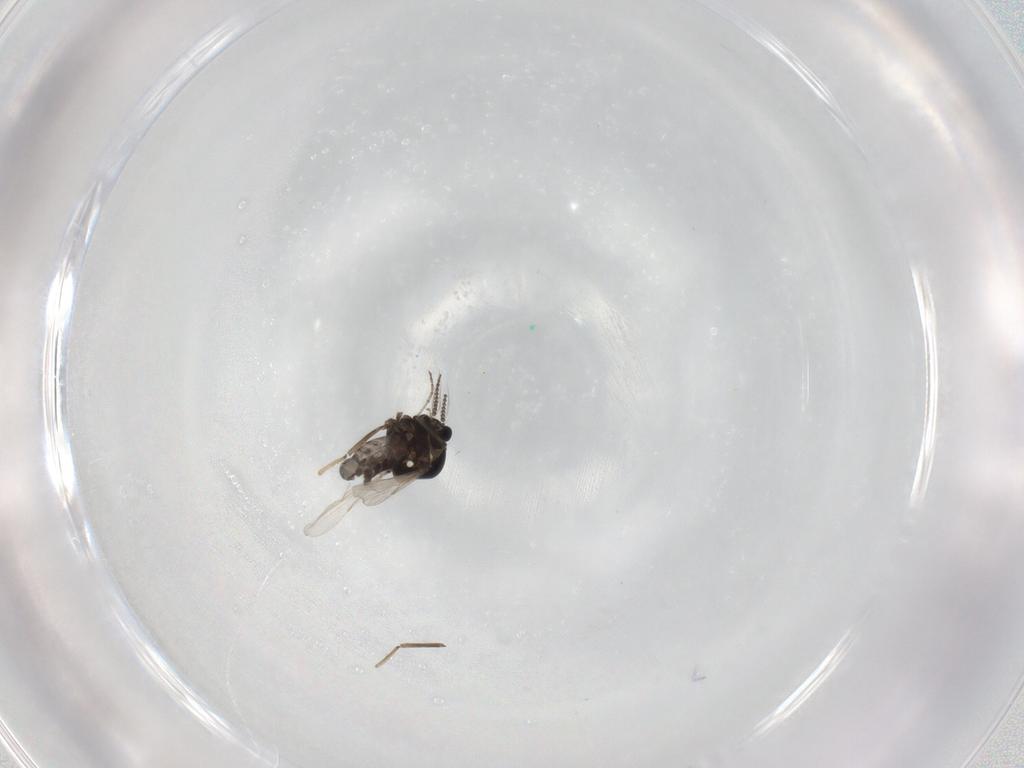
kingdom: Animalia
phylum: Arthropoda
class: Insecta
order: Diptera
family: Ceratopogonidae
